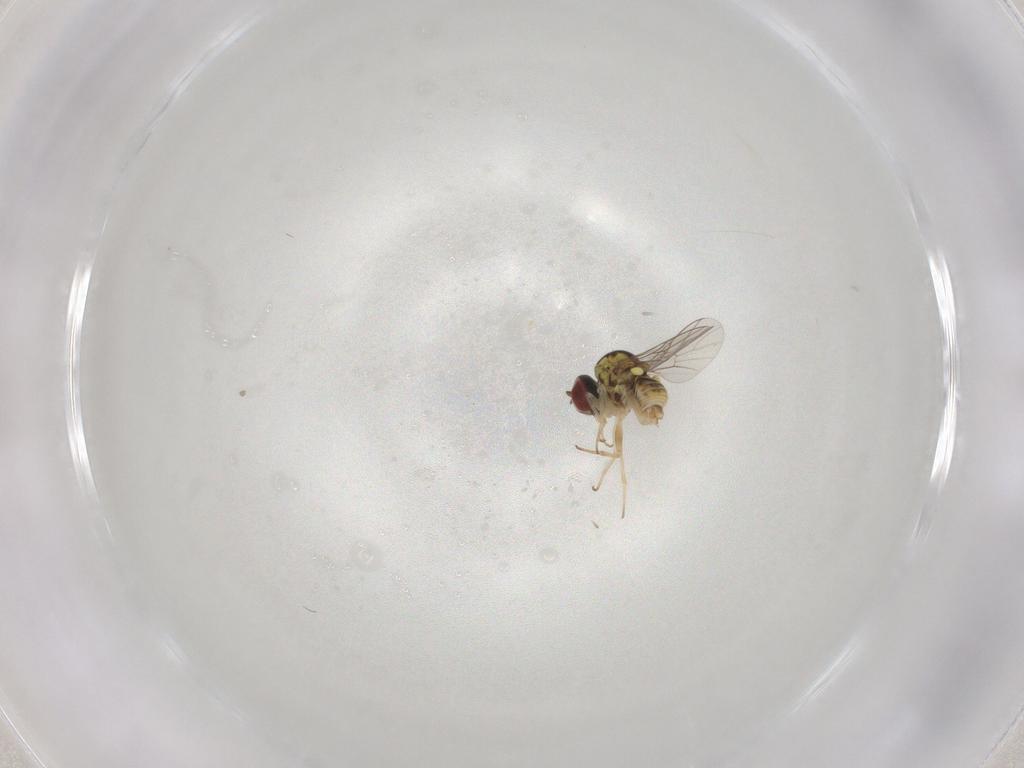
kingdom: Animalia
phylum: Arthropoda
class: Insecta
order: Diptera
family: Bombyliidae
